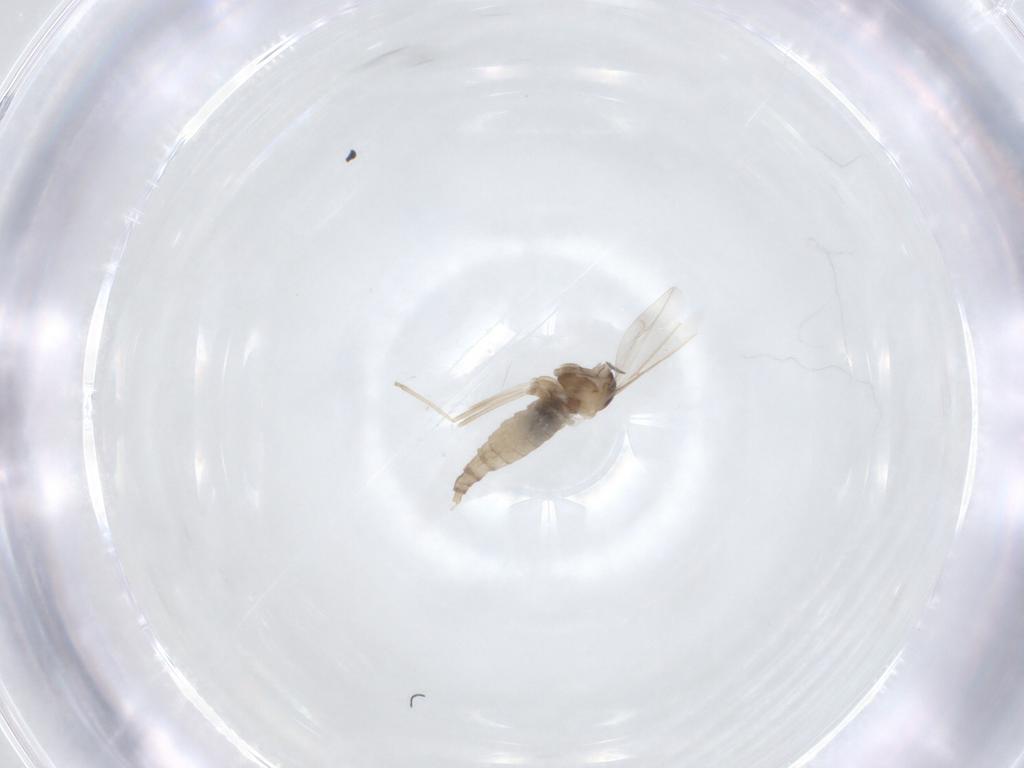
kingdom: Animalia
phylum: Arthropoda
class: Insecta
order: Diptera
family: Cecidomyiidae
